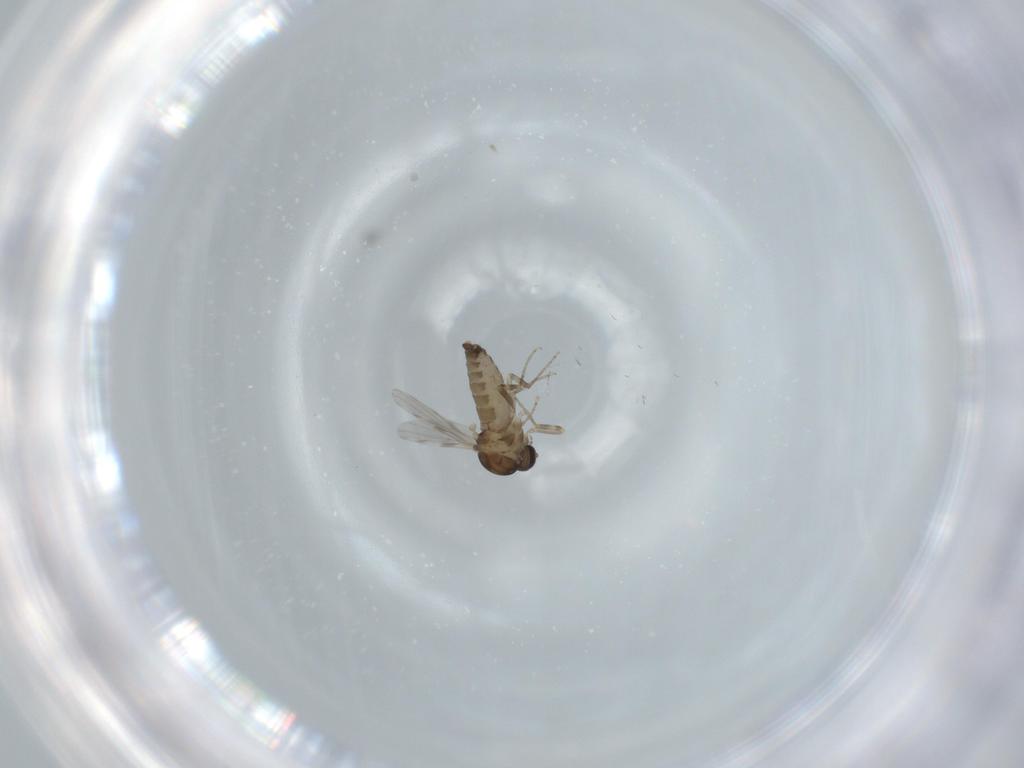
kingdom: Animalia
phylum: Arthropoda
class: Insecta
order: Diptera
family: Ceratopogonidae
